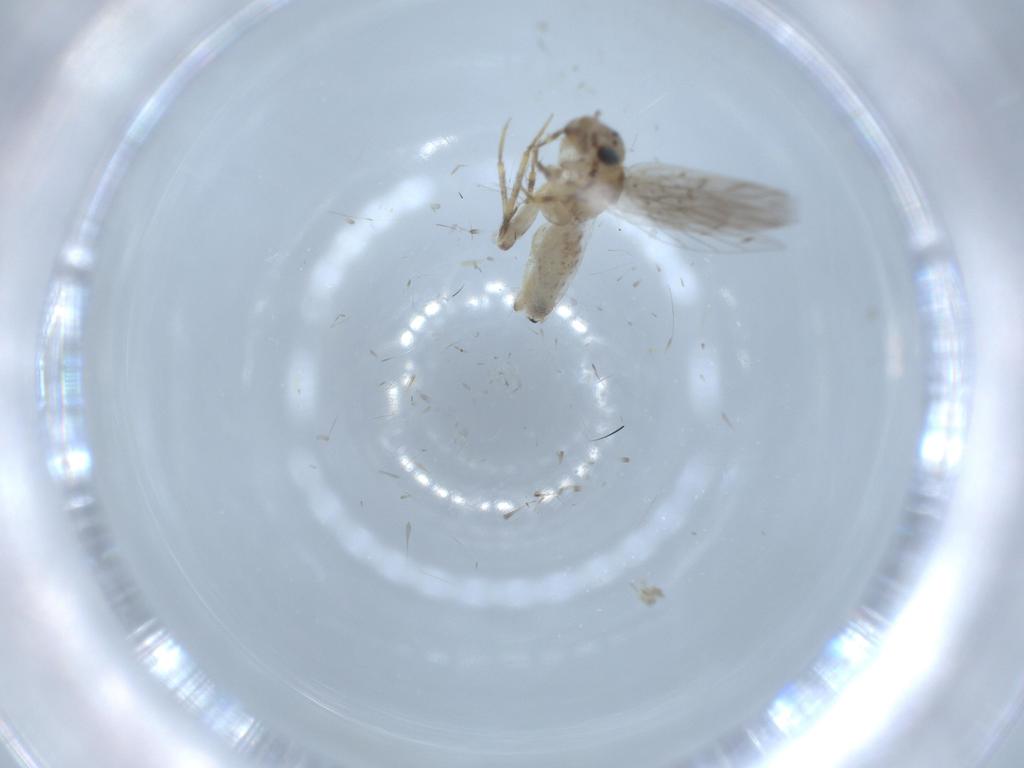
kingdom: Animalia
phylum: Arthropoda
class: Insecta
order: Psocodea
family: Lepidopsocidae
